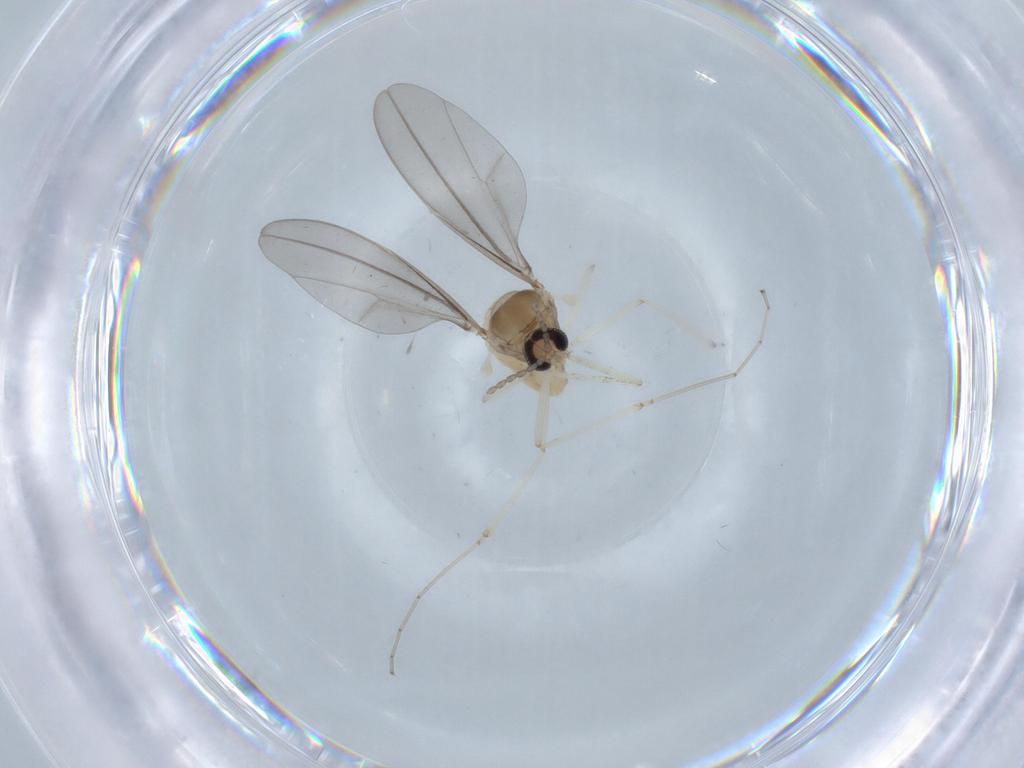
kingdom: Animalia
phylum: Arthropoda
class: Insecta
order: Diptera
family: Cecidomyiidae
